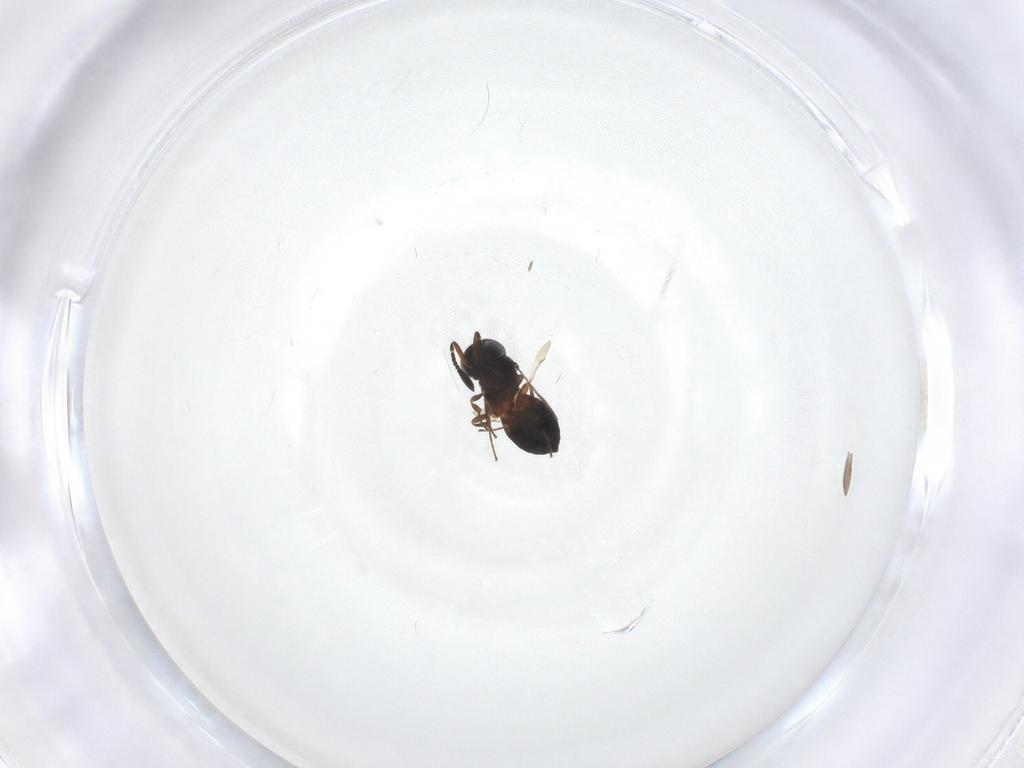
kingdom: Animalia
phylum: Arthropoda
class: Insecta
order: Hymenoptera
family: Scelionidae
